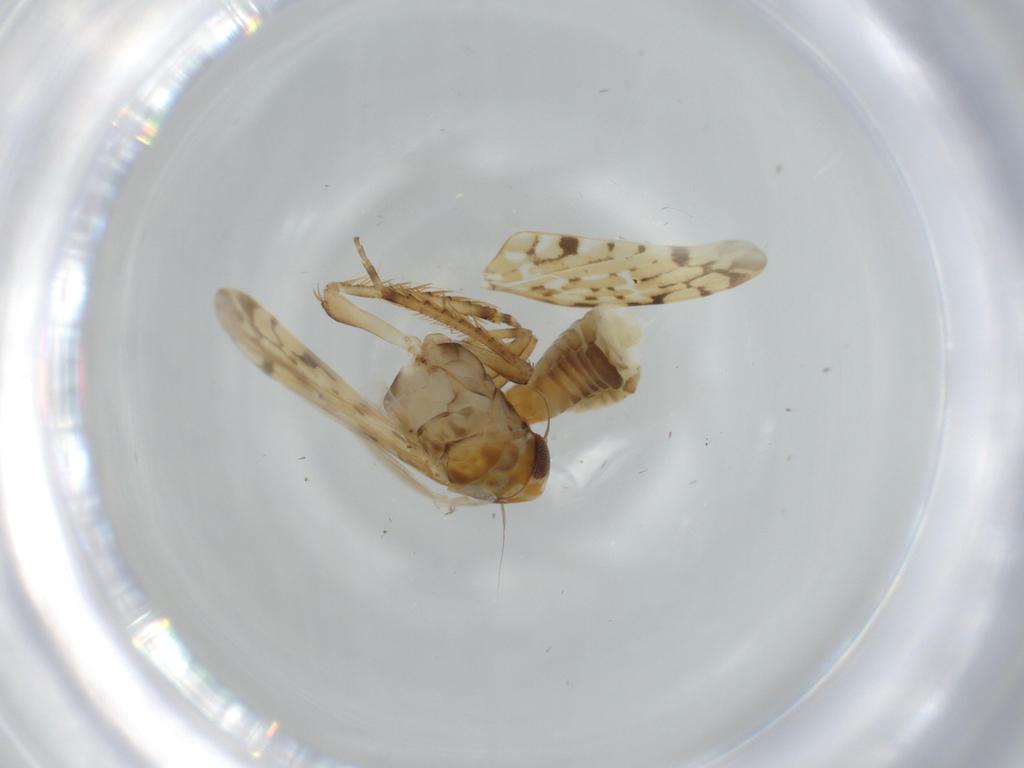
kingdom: Animalia
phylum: Arthropoda
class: Insecta
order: Hemiptera
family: Cicadellidae
